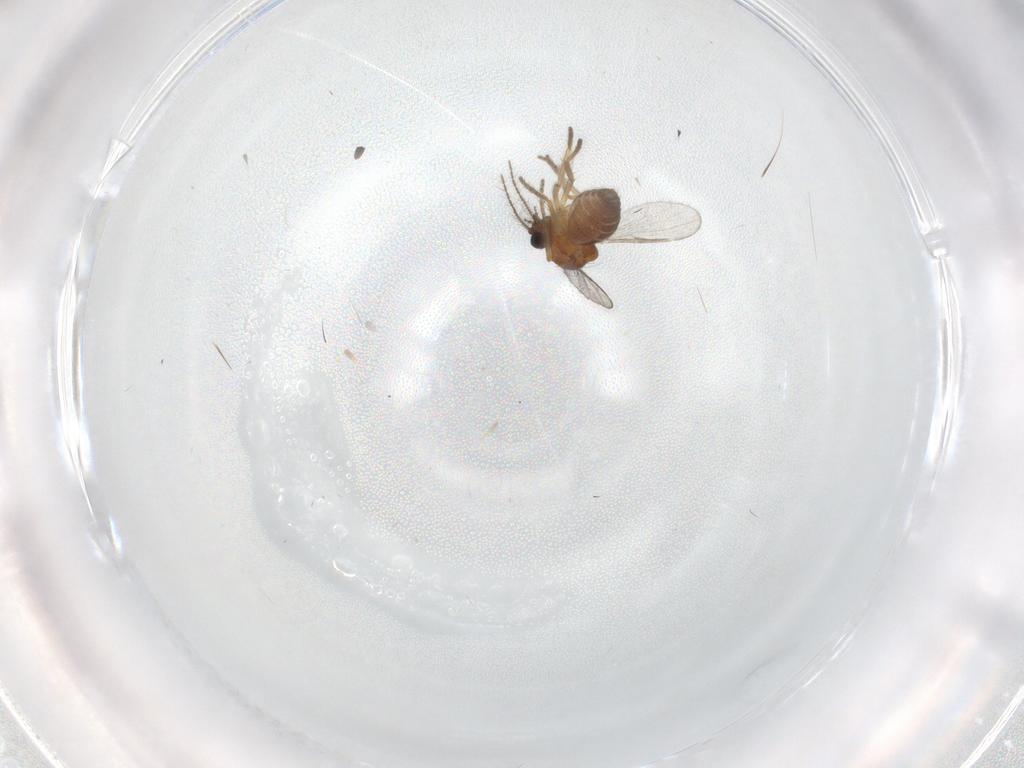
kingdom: Animalia
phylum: Arthropoda
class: Insecta
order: Diptera
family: Ceratopogonidae
